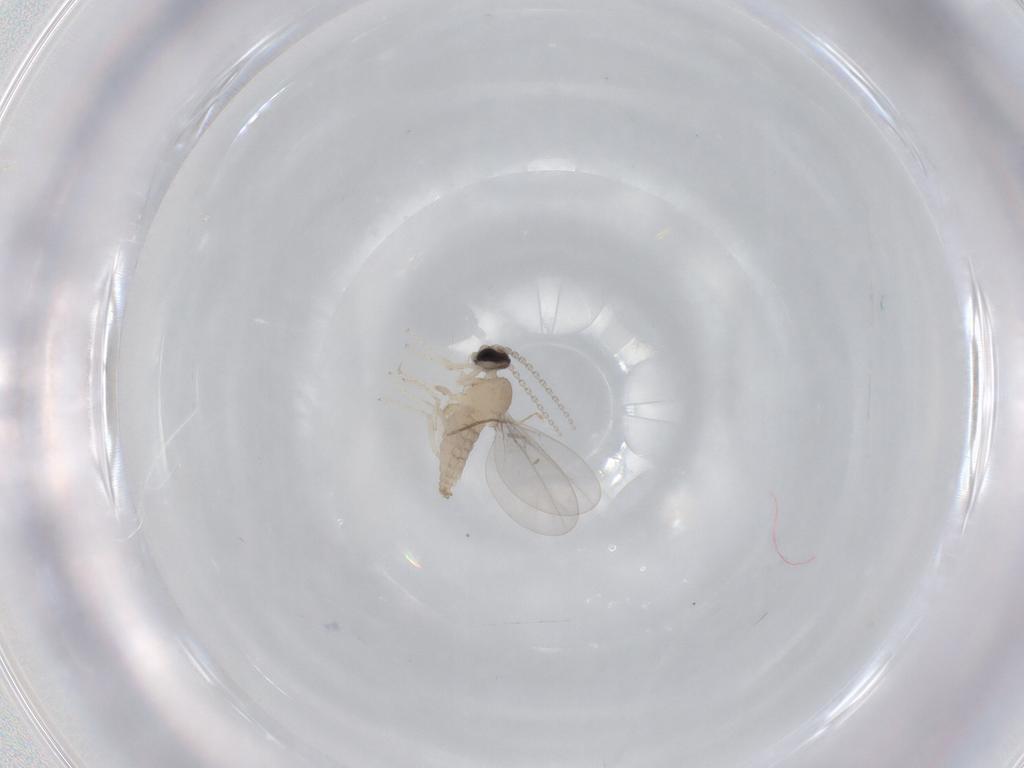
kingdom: Animalia
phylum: Arthropoda
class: Insecta
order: Diptera
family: Cecidomyiidae
